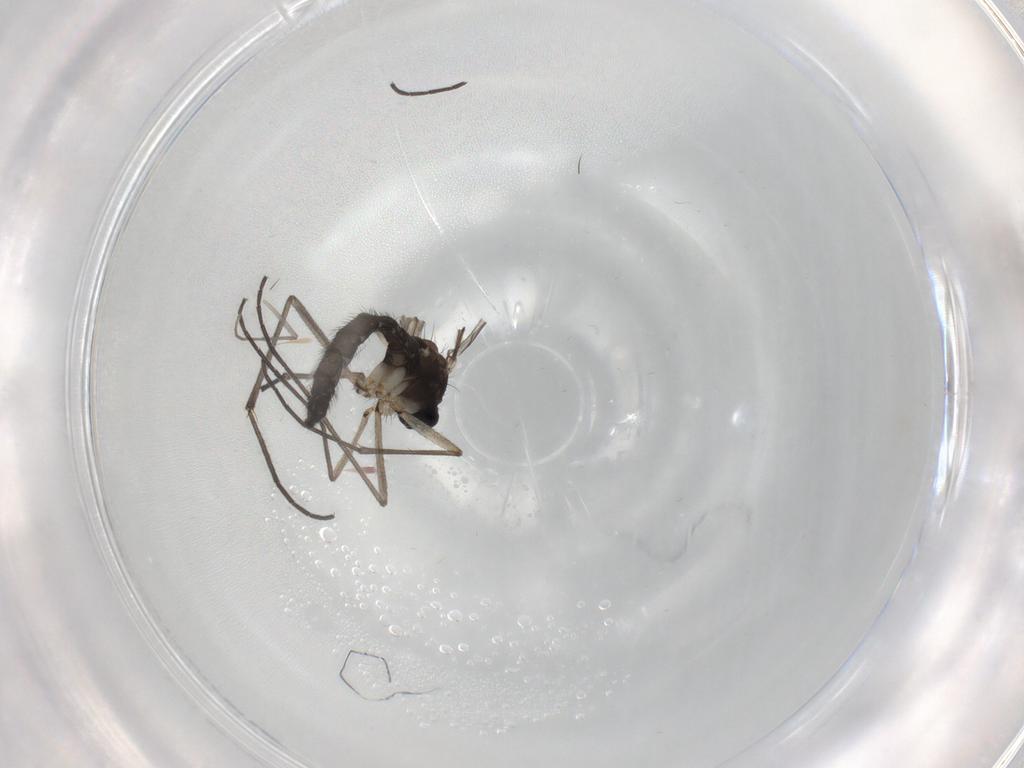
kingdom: Animalia
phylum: Arthropoda
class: Insecta
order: Diptera
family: Sciaridae
